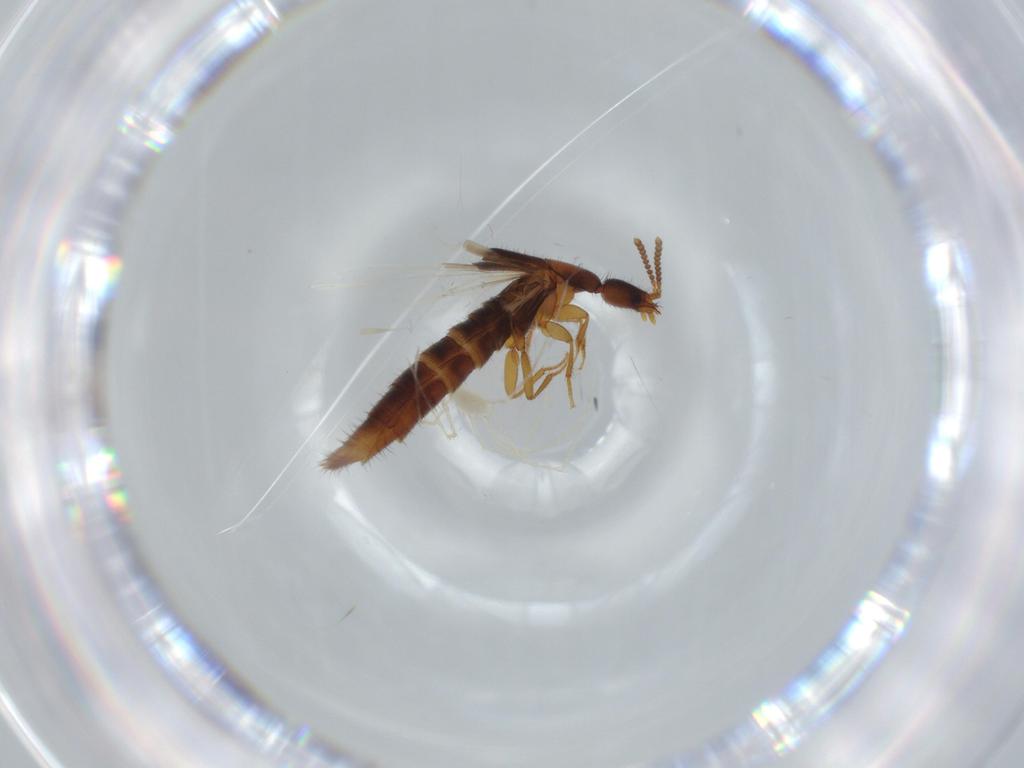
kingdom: Animalia
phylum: Arthropoda
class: Insecta
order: Coleoptera
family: Staphylinidae
